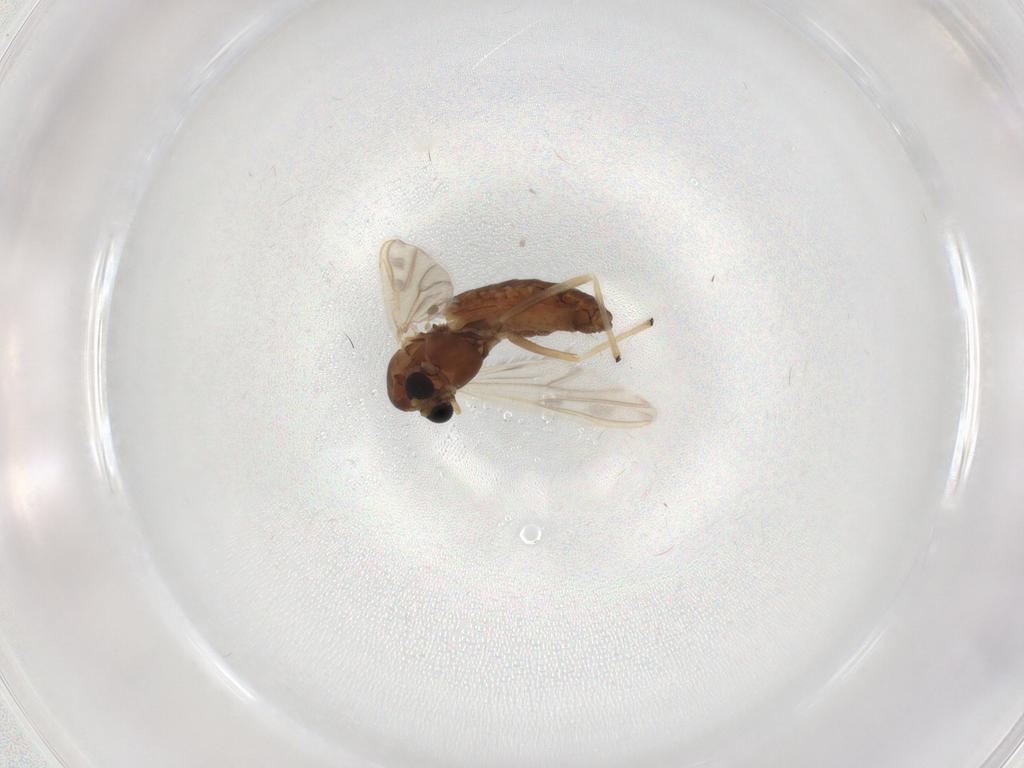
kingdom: Animalia
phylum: Arthropoda
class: Insecta
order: Diptera
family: Chironomidae
